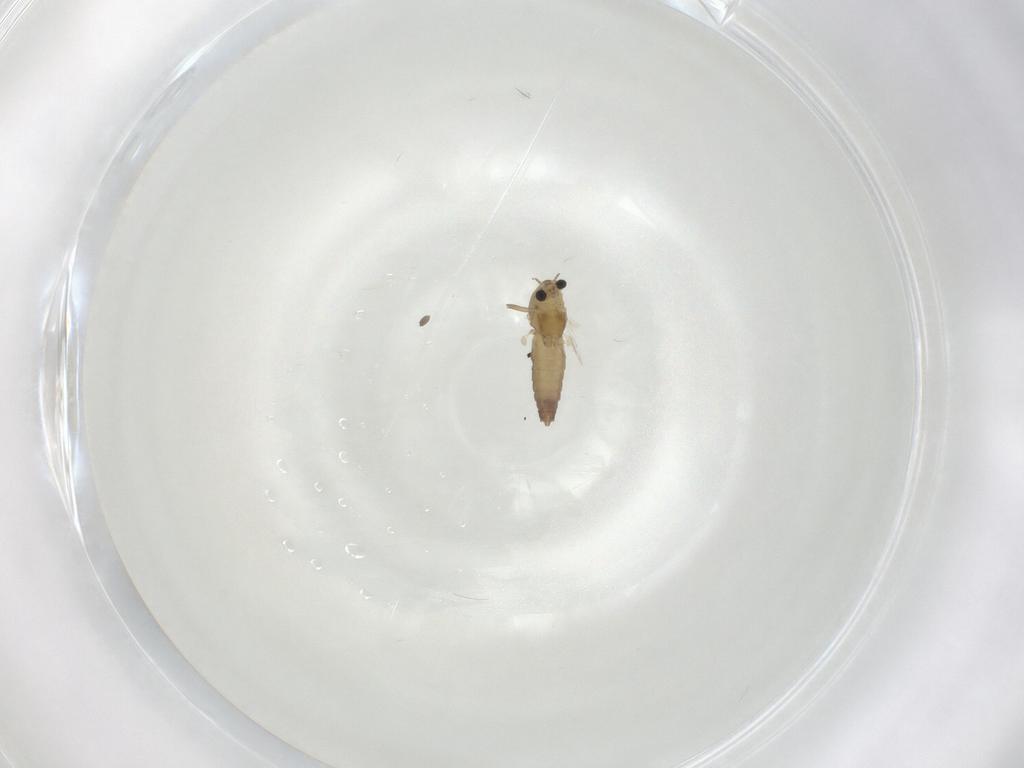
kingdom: Animalia
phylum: Arthropoda
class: Insecta
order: Diptera
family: Chironomidae
